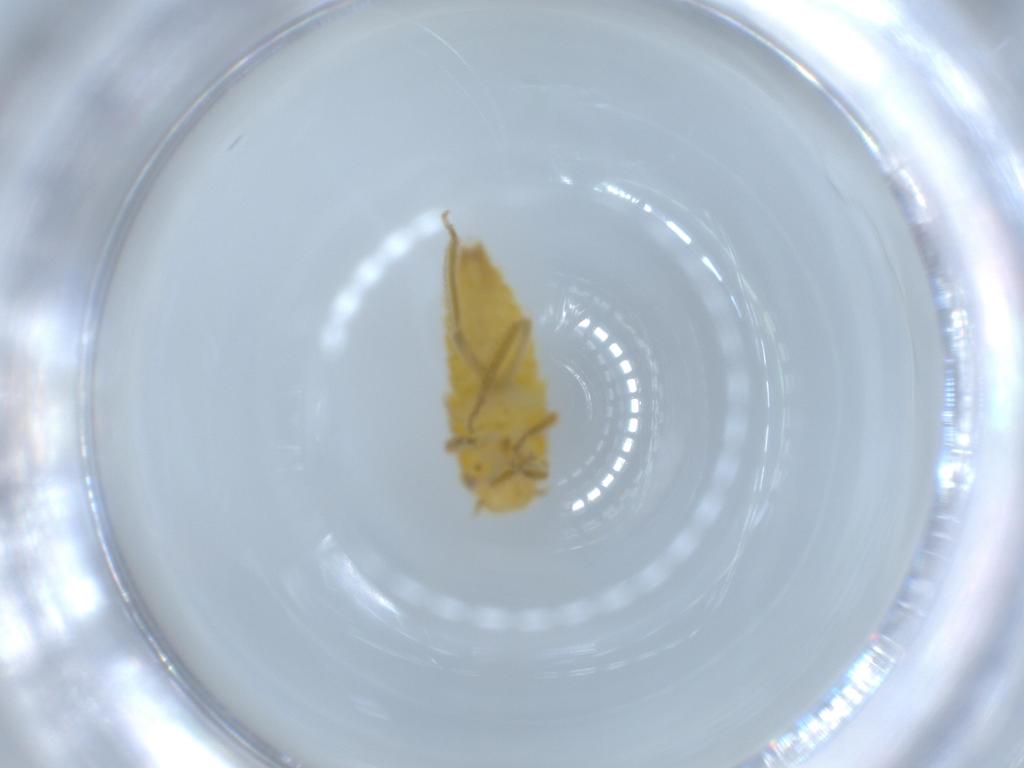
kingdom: Animalia
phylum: Arthropoda
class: Insecta
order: Hemiptera
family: Cicadellidae
